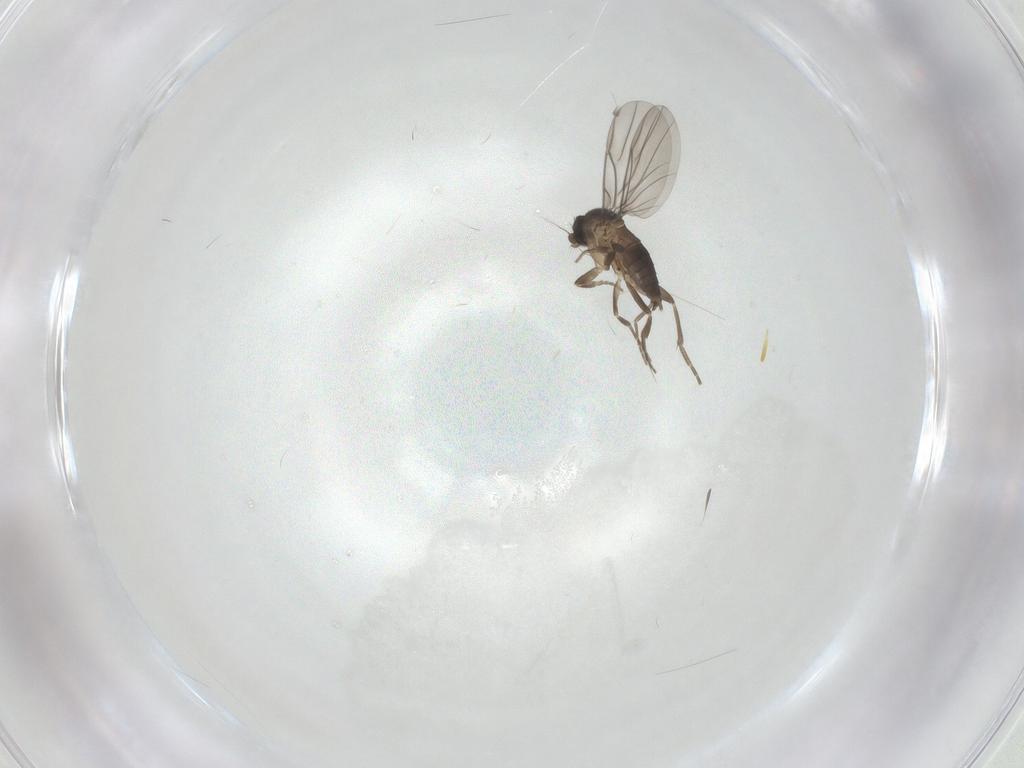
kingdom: Animalia
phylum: Arthropoda
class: Insecta
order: Diptera
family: Phoridae
